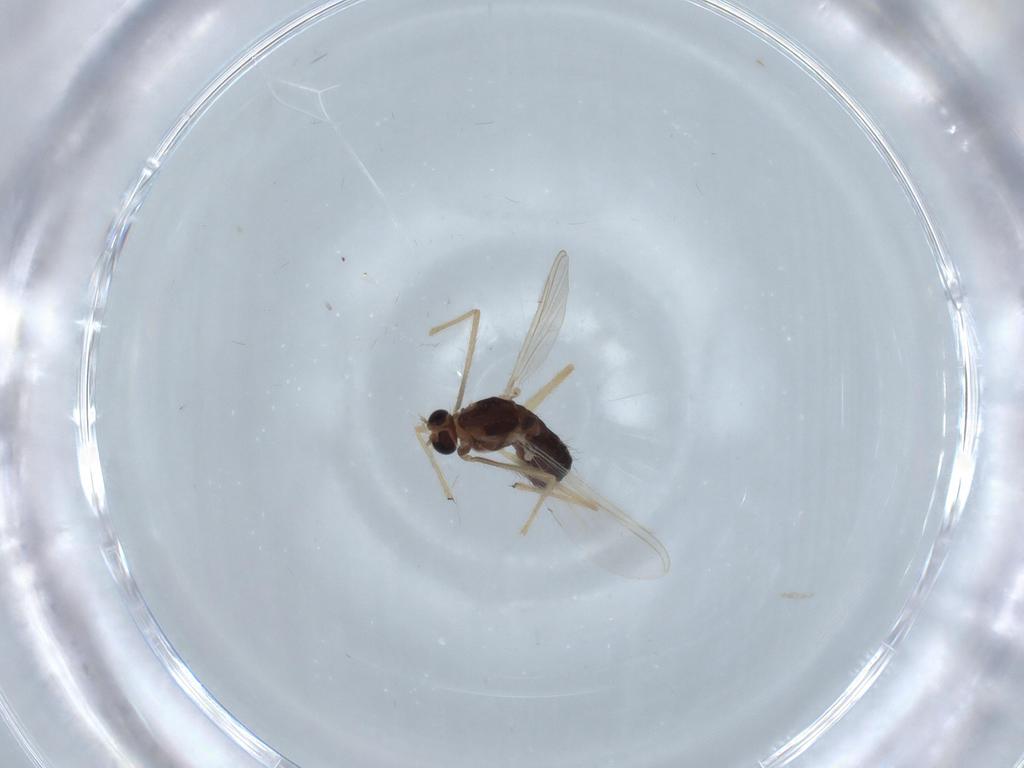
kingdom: Animalia
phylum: Arthropoda
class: Insecta
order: Diptera
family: Chironomidae
